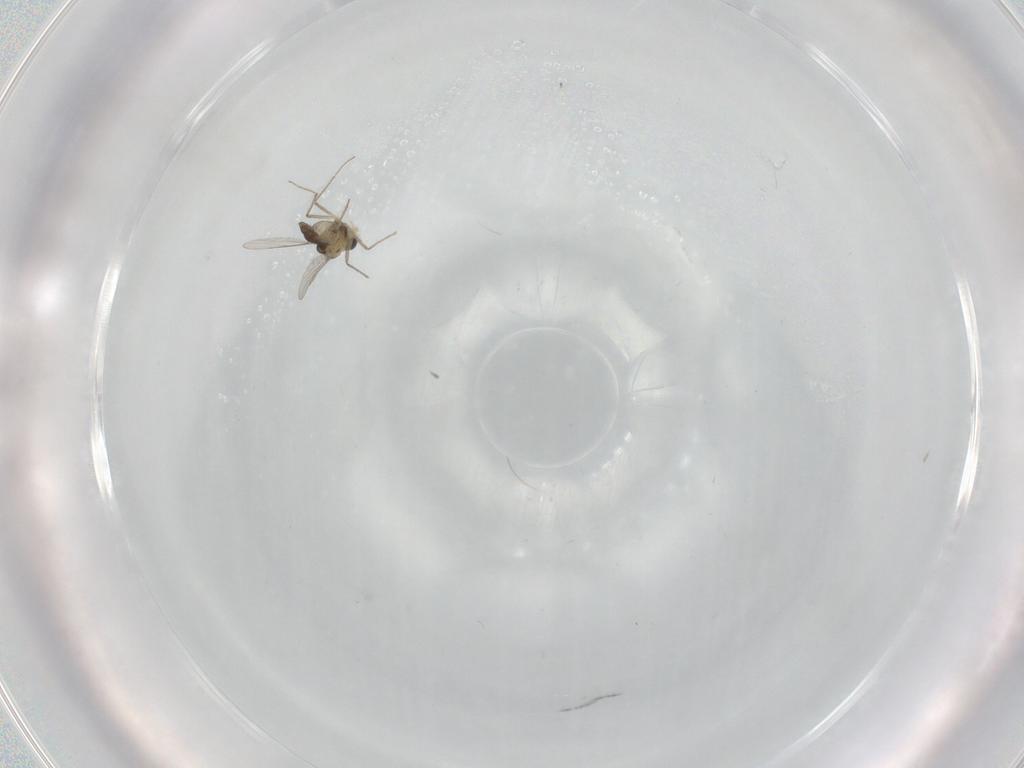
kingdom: Animalia
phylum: Arthropoda
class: Insecta
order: Diptera
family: Chironomidae
